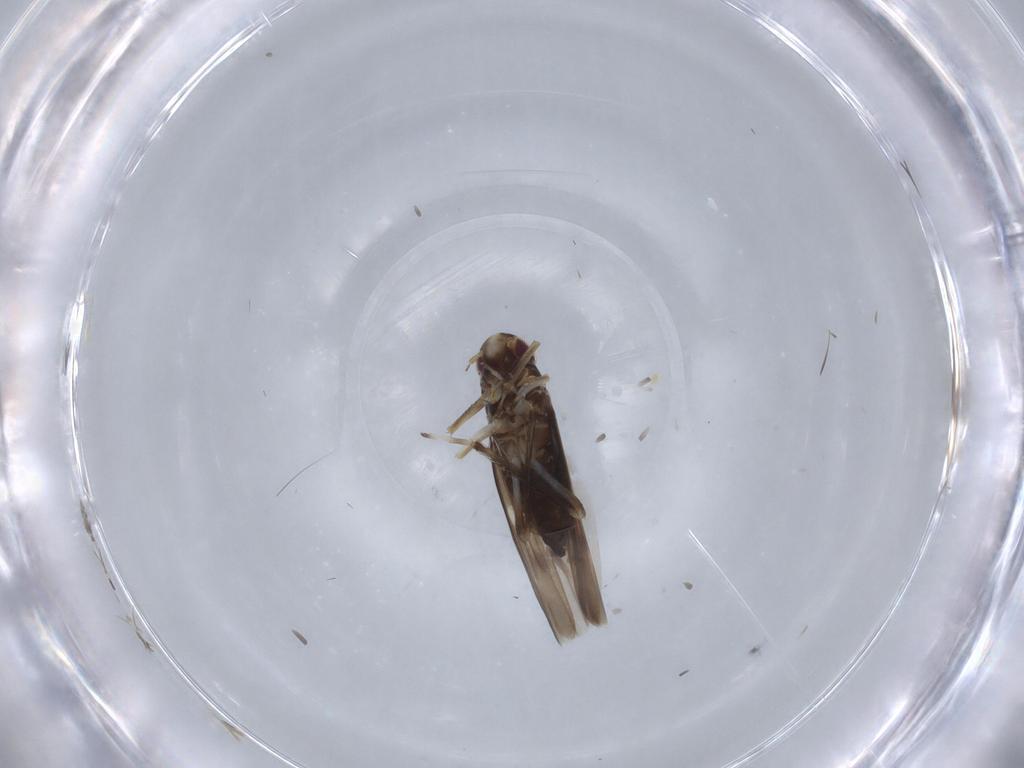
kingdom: Animalia
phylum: Arthropoda
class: Insecta
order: Hemiptera
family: Cicadellidae
